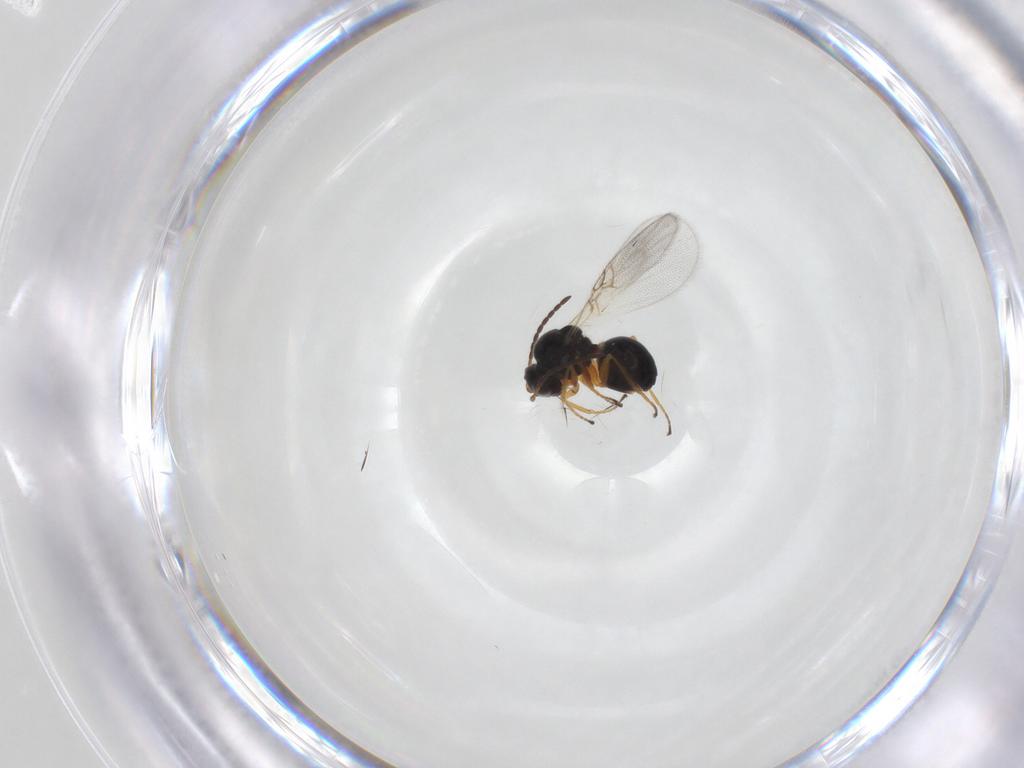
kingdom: Animalia
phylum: Arthropoda
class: Insecta
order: Hymenoptera
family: Figitidae
